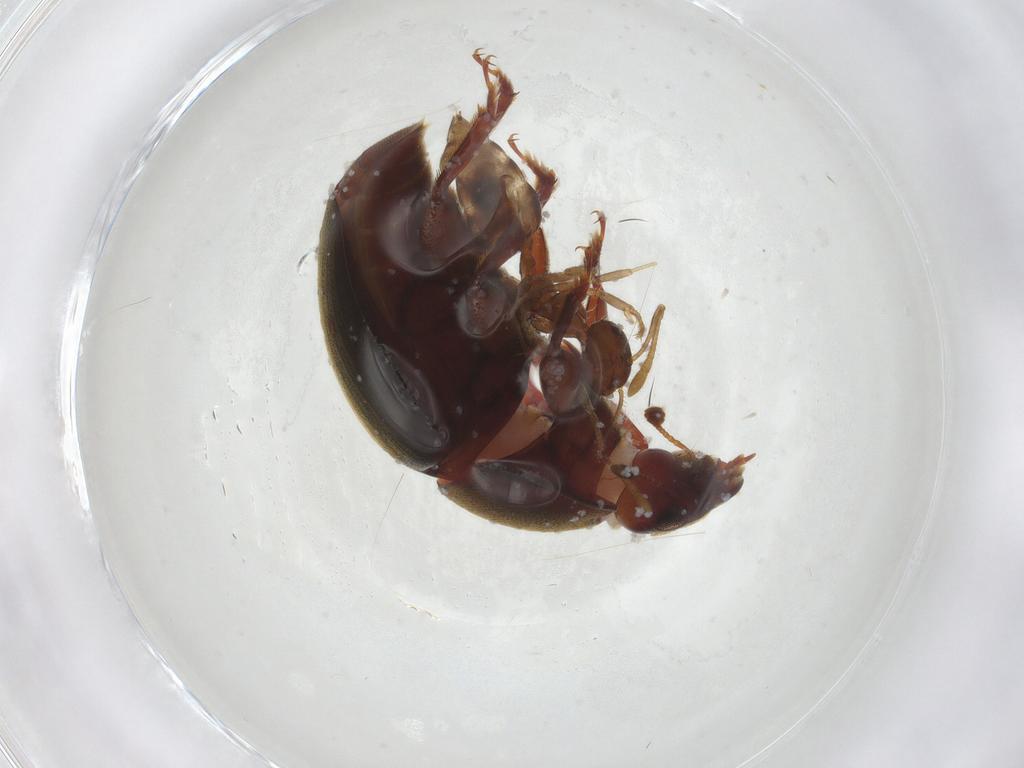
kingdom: Animalia
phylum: Arthropoda
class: Insecta
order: Coleoptera
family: Nitidulidae
